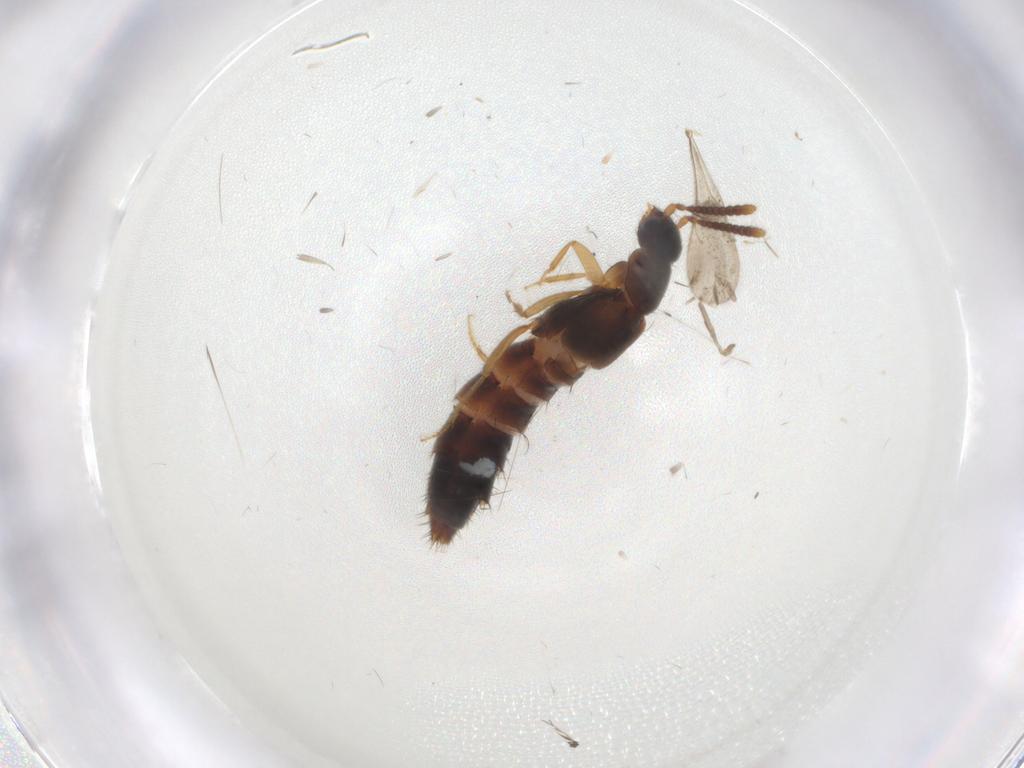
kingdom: Animalia
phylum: Arthropoda
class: Insecta
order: Coleoptera
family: Staphylinidae
